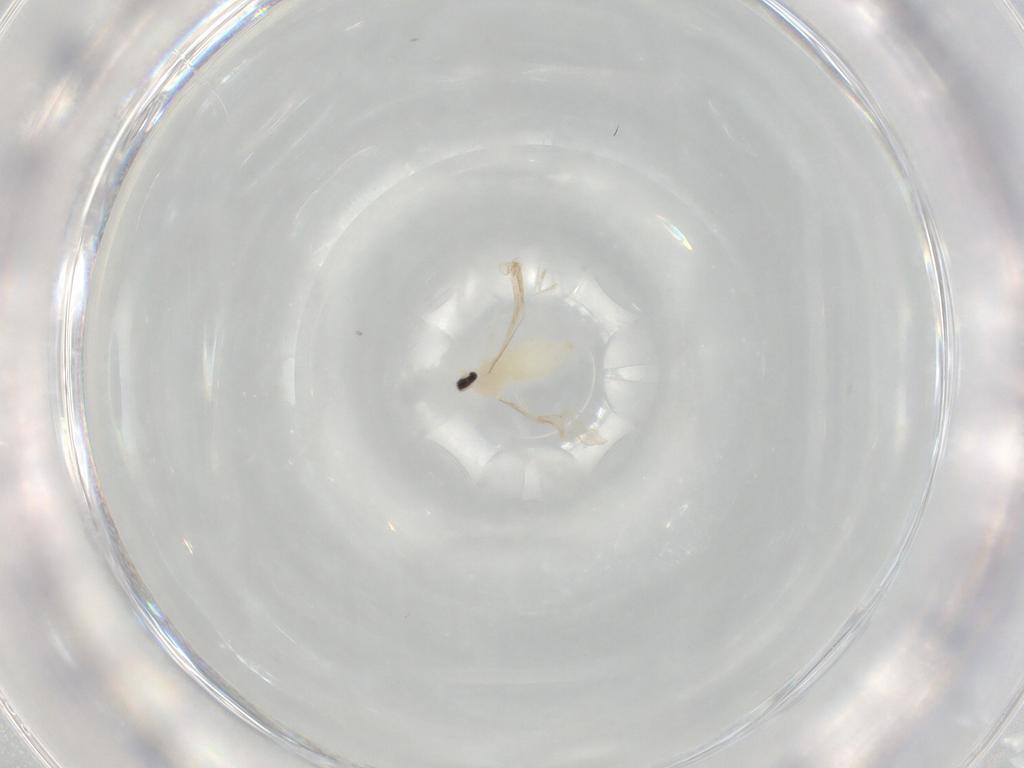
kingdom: Animalia
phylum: Arthropoda
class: Insecta
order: Diptera
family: Cecidomyiidae
